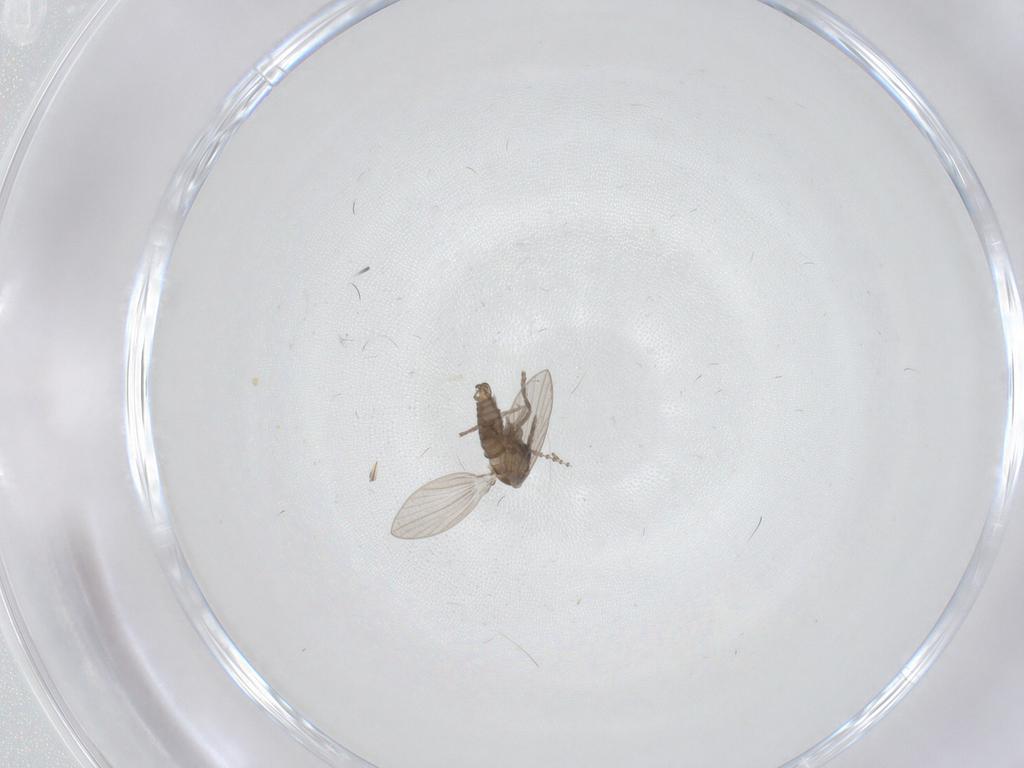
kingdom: Animalia
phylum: Arthropoda
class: Insecta
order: Diptera
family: Psychodidae
